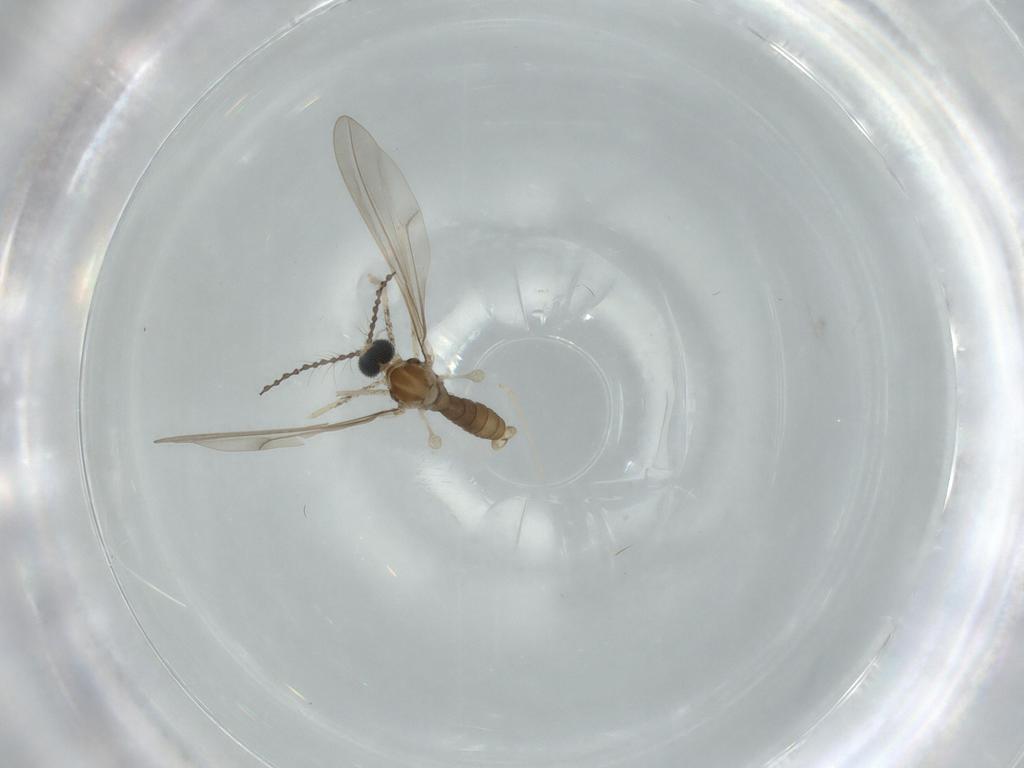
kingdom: Animalia
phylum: Arthropoda
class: Insecta
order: Diptera
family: Cecidomyiidae
